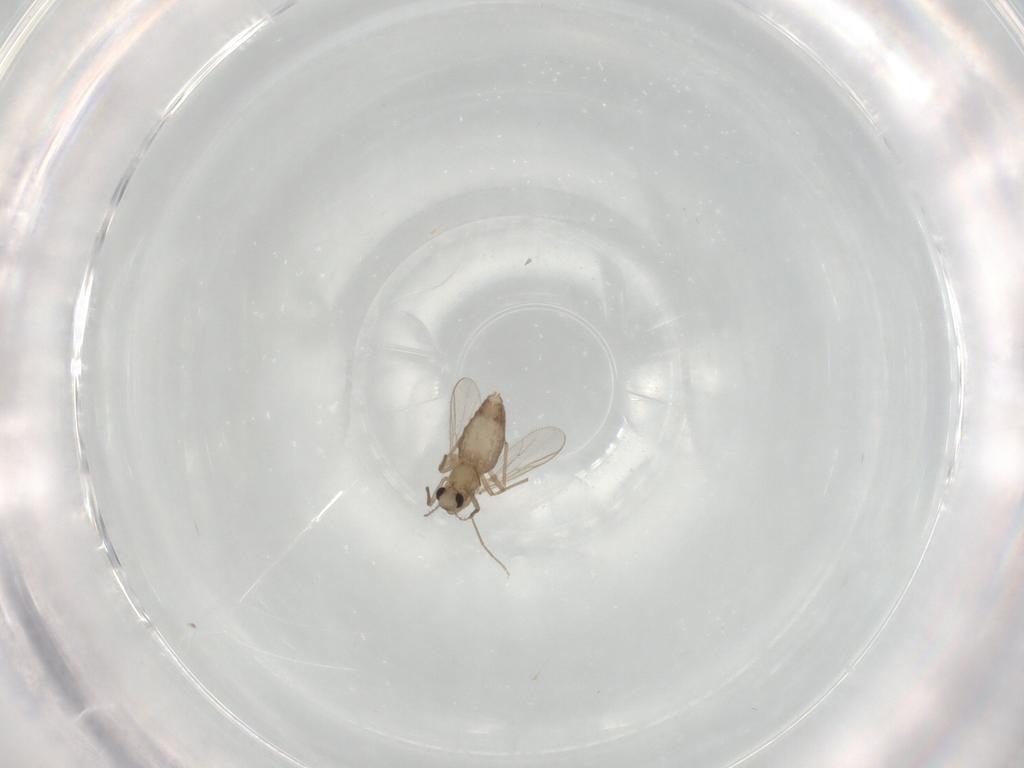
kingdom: Animalia
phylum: Arthropoda
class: Insecta
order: Diptera
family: Chironomidae
